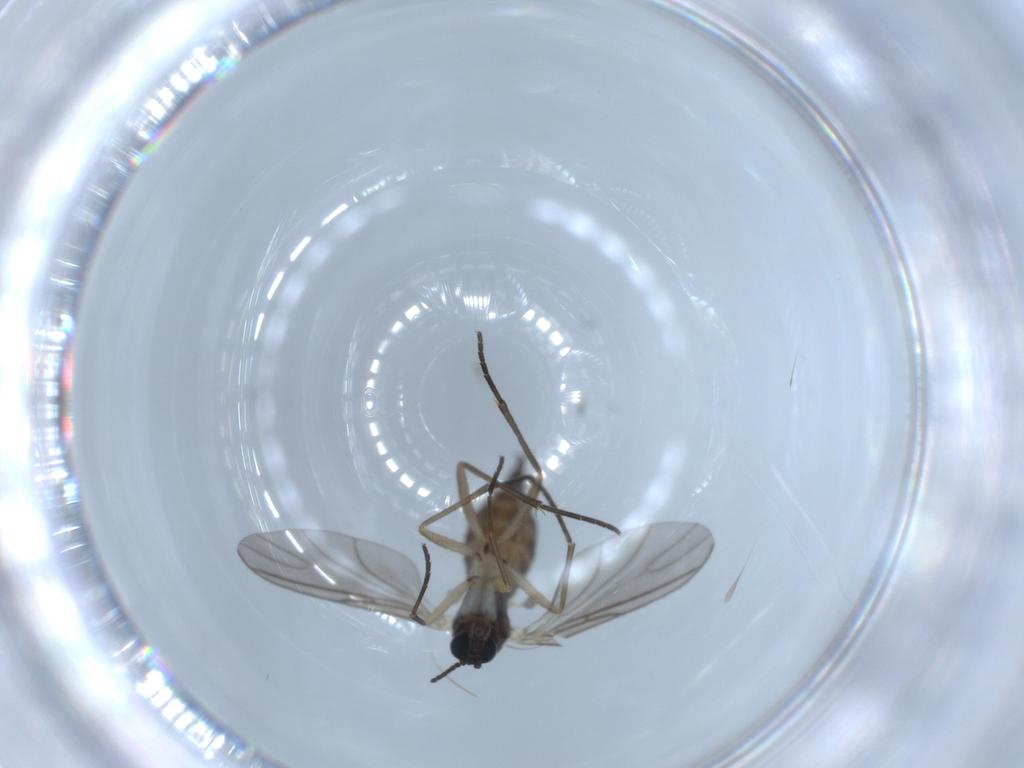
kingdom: Animalia
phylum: Arthropoda
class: Insecta
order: Diptera
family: Sciaridae
